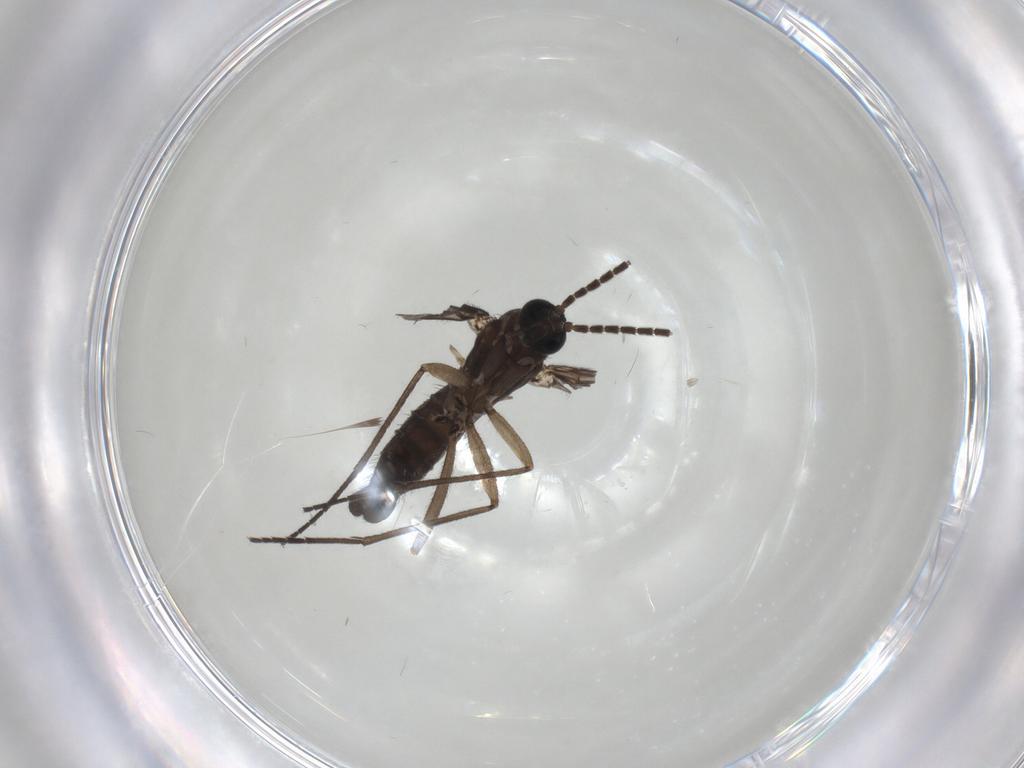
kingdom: Animalia
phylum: Arthropoda
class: Insecta
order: Diptera
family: Sciaridae
